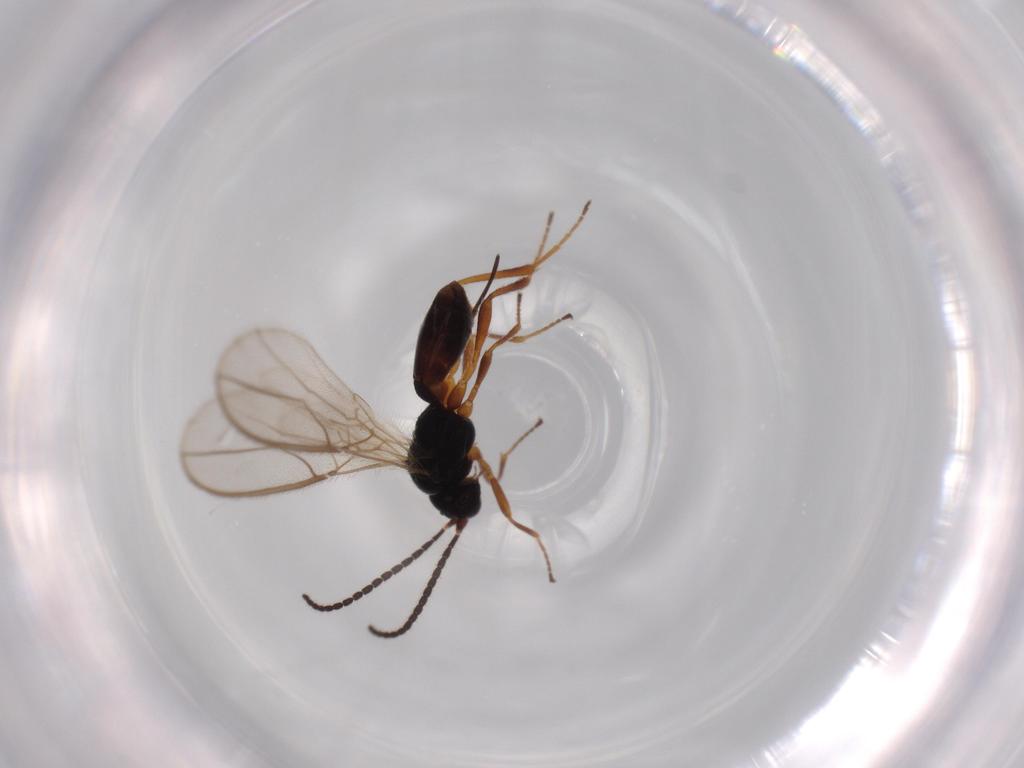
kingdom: Animalia
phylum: Arthropoda
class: Insecta
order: Hymenoptera
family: Braconidae
